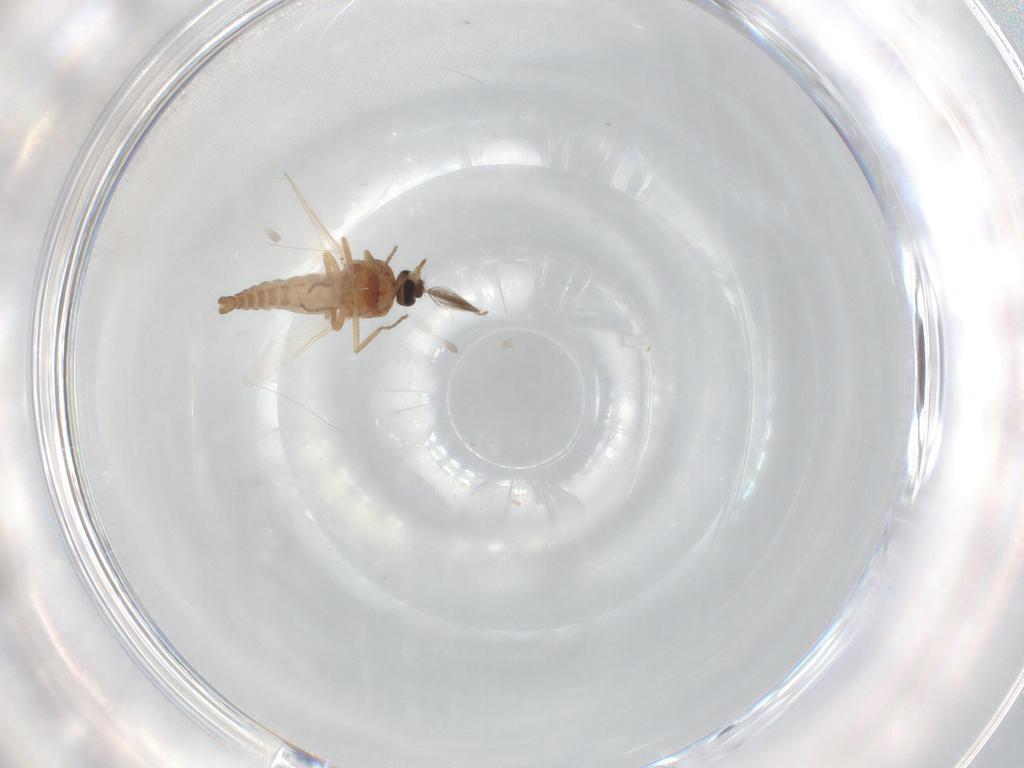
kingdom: Animalia
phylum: Arthropoda
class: Insecta
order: Diptera
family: Ceratopogonidae
